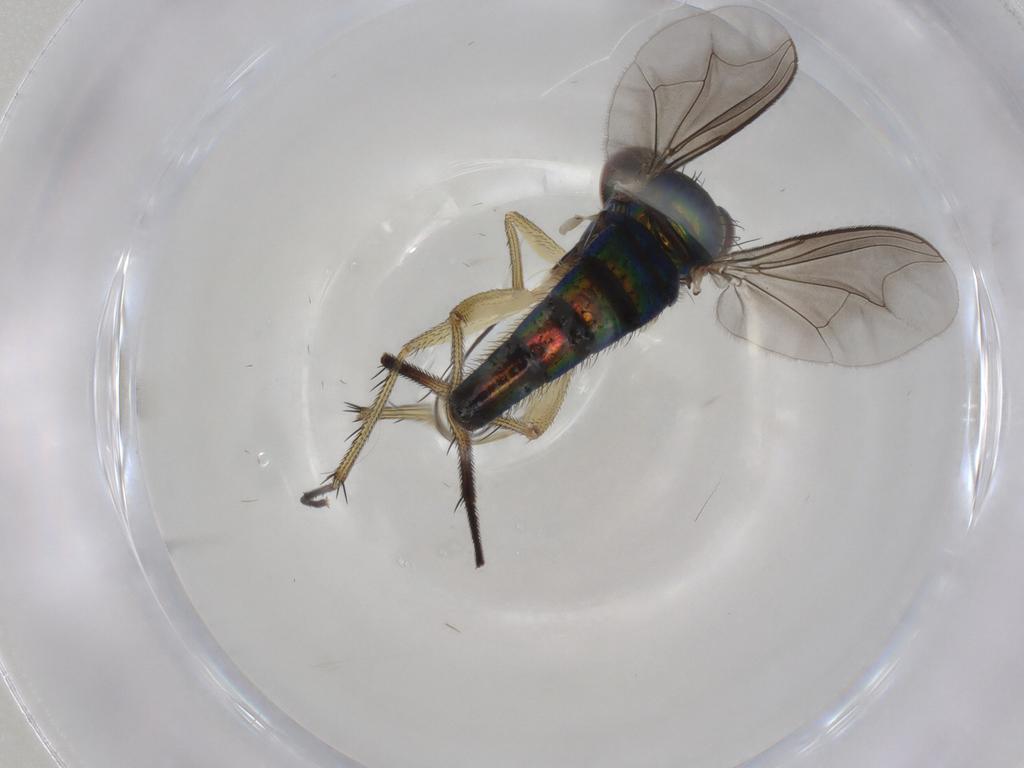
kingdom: Animalia
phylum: Arthropoda
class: Insecta
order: Diptera
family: Dolichopodidae
